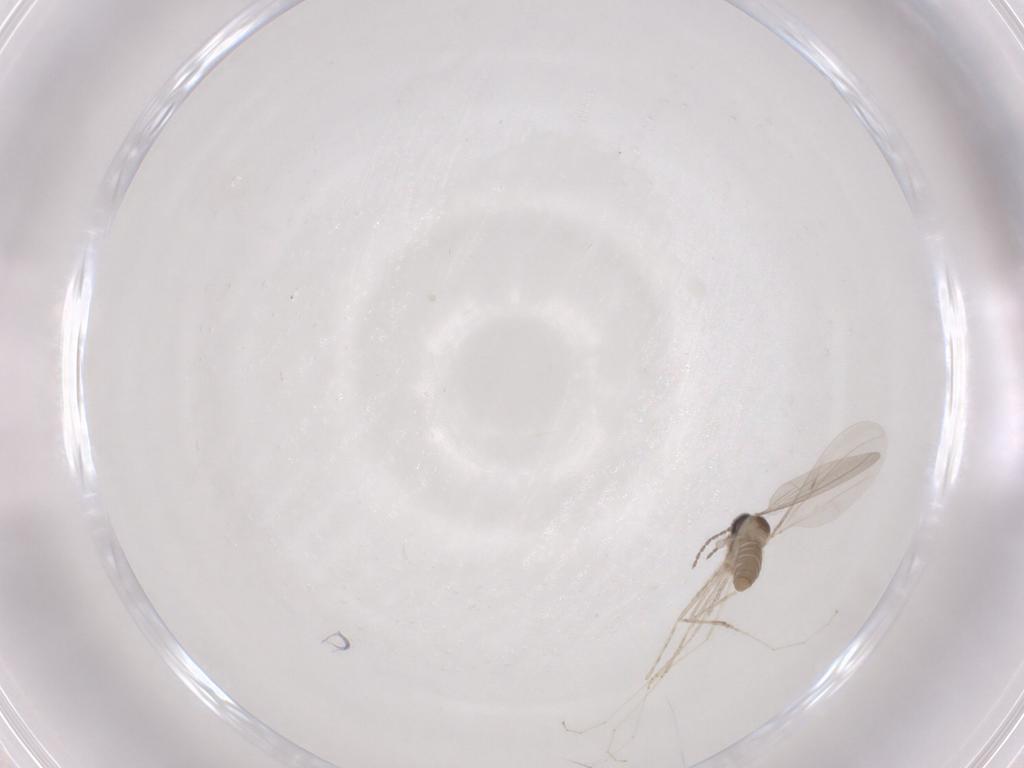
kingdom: Animalia
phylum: Arthropoda
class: Insecta
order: Diptera
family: Cecidomyiidae
